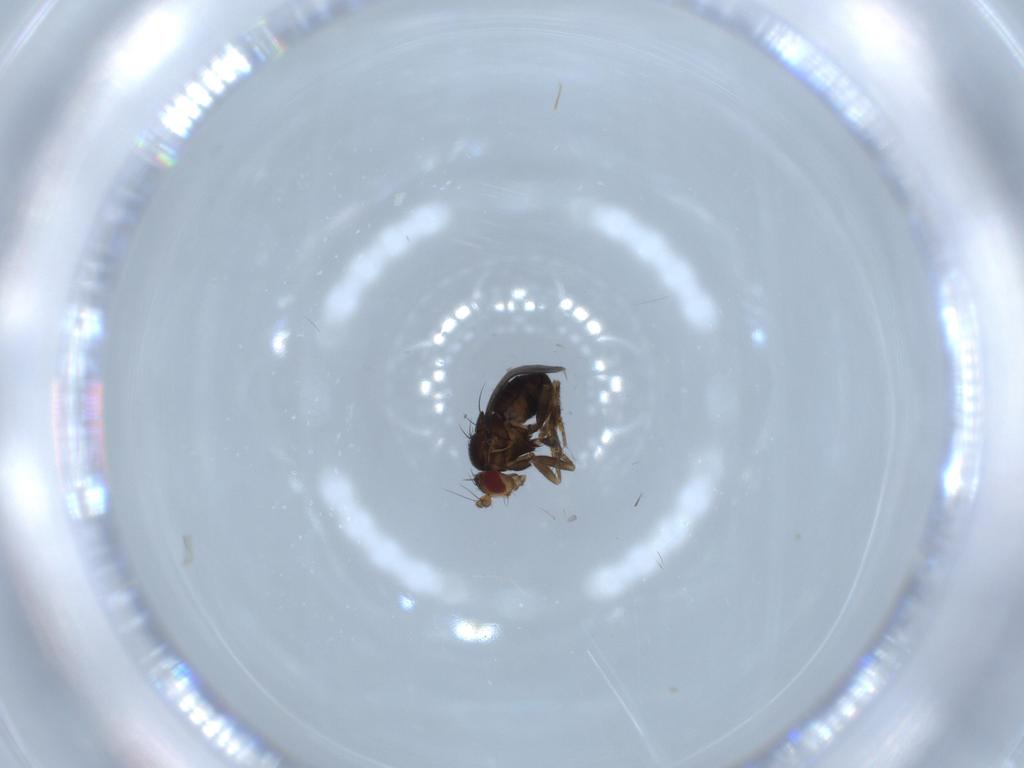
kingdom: Animalia
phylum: Arthropoda
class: Insecta
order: Diptera
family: Sphaeroceridae
